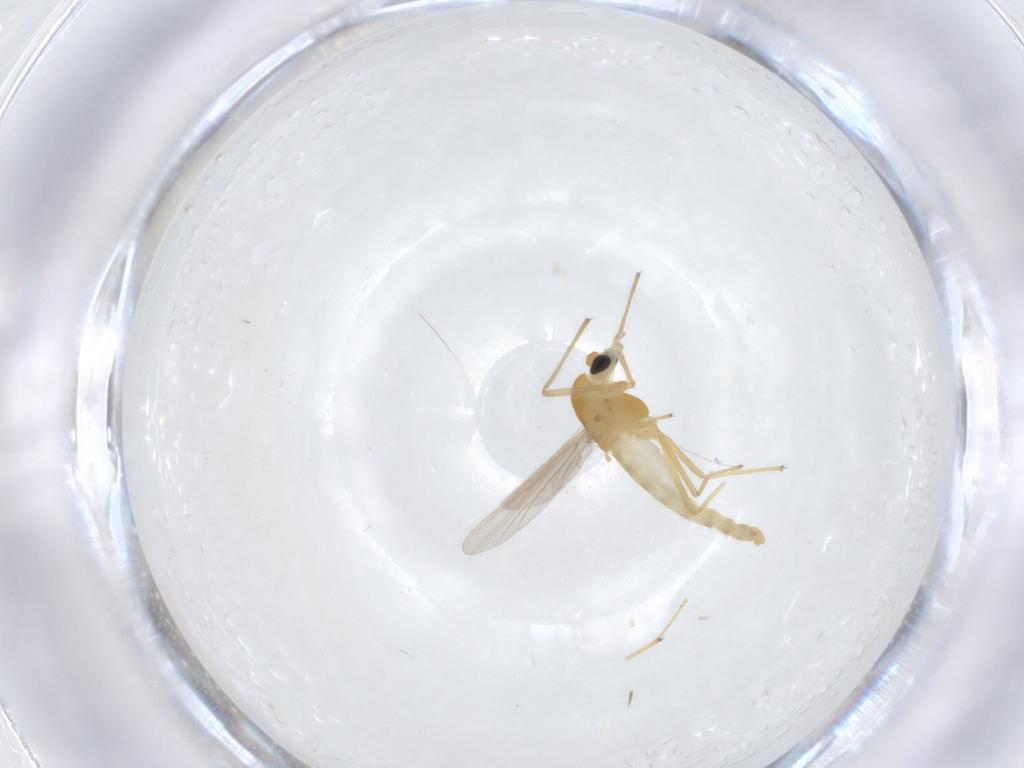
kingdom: Animalia
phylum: Arthropoda
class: Insecta
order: Diptera
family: Chironomidae
